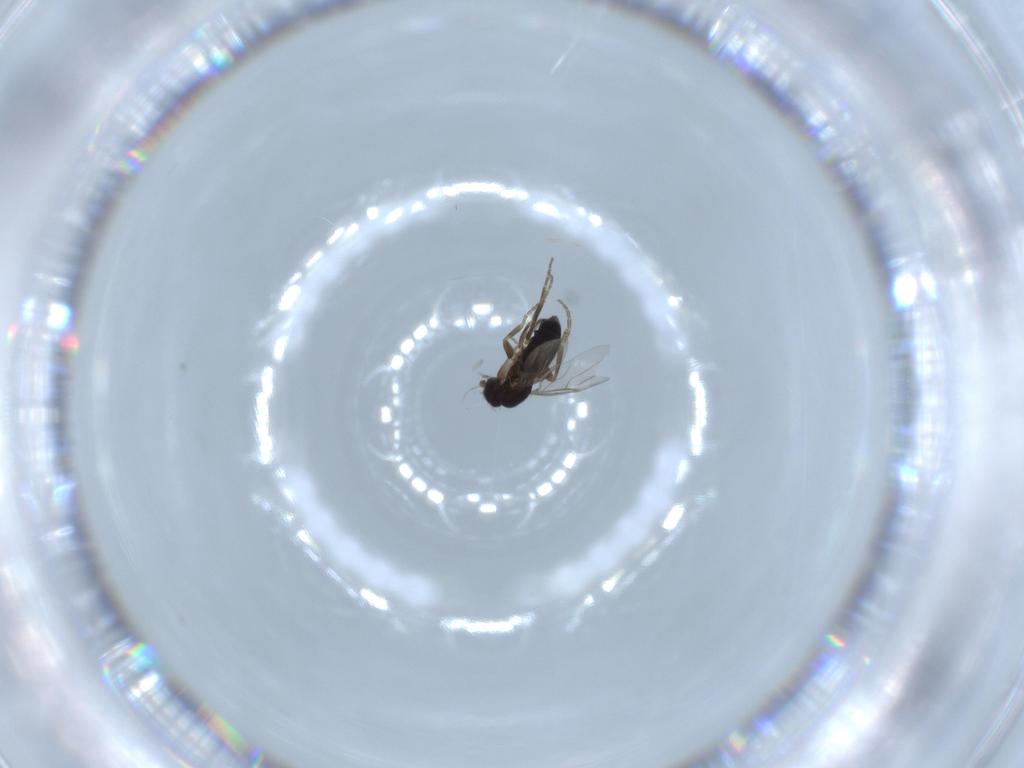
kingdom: Animalia
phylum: Arthropoda
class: Insecta
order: Diptera
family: Phoridae
